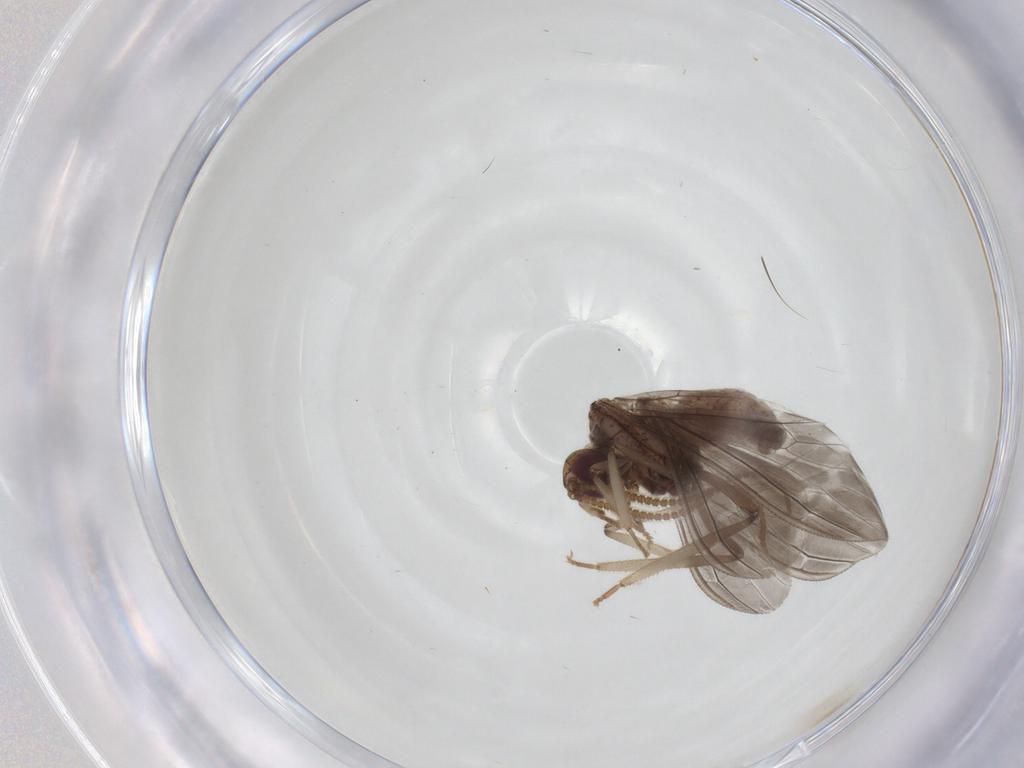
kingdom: Animalia
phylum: Arthropoda
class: Insecta
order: Neuroptera
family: Coniopterygidae
